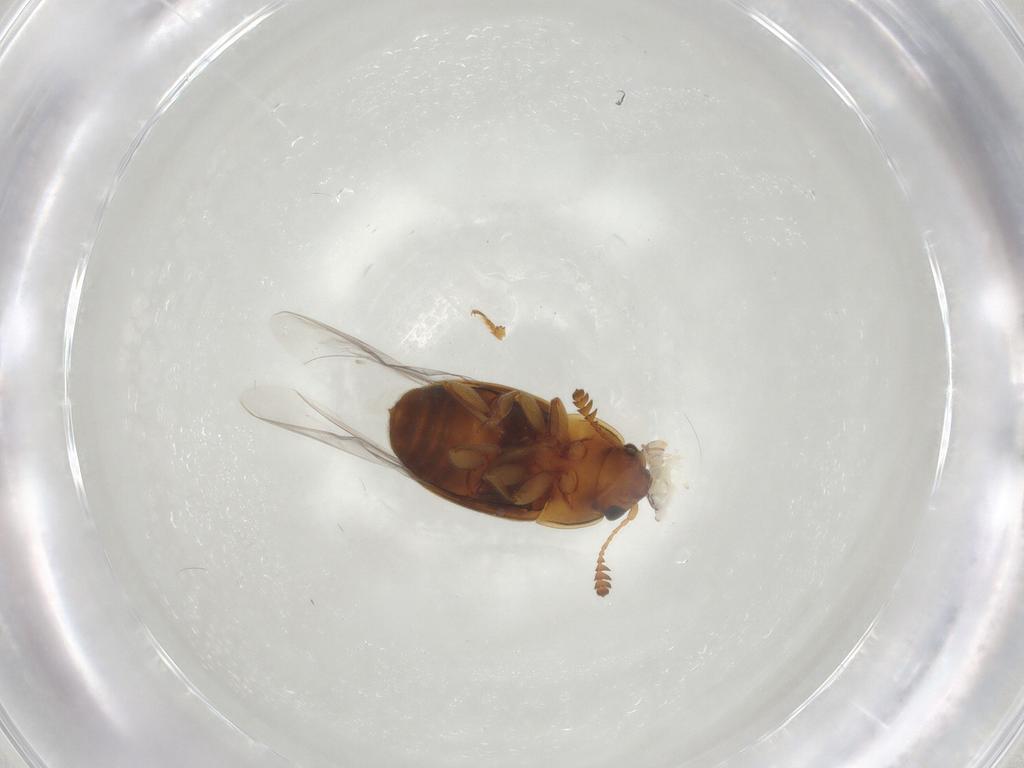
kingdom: Animalia
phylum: Arthropoda
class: Insecta
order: Coleoptera
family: Nitidulidae
